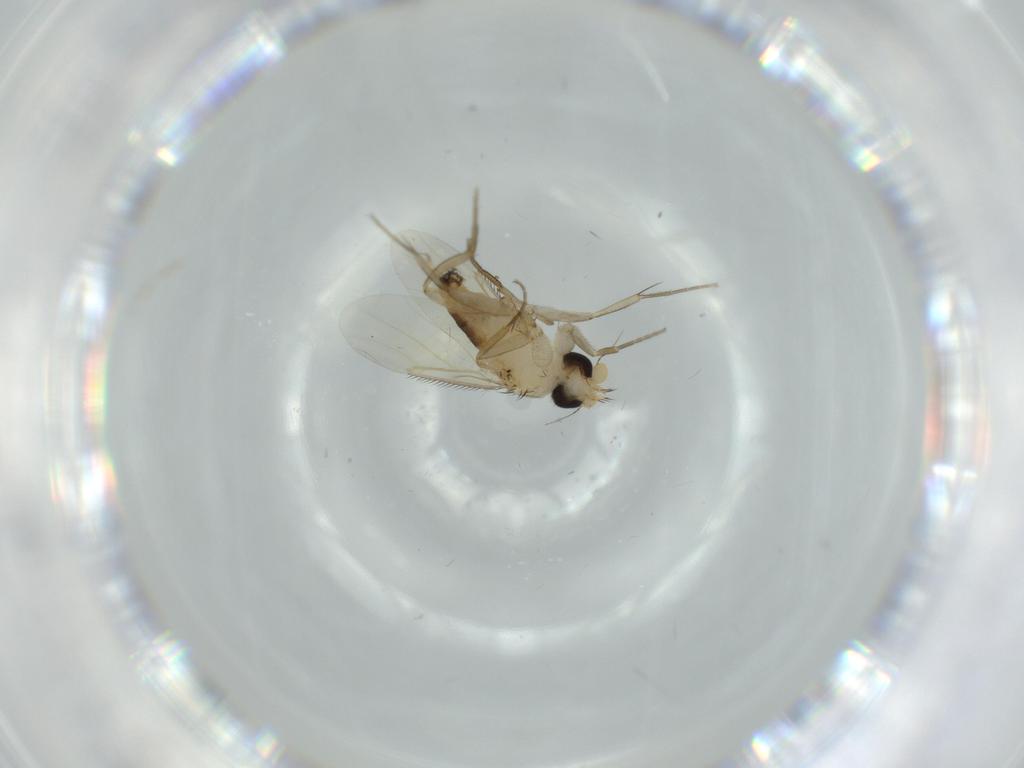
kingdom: Animalia
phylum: Arthropoda
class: Insecta
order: Diptera
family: Phoridae
